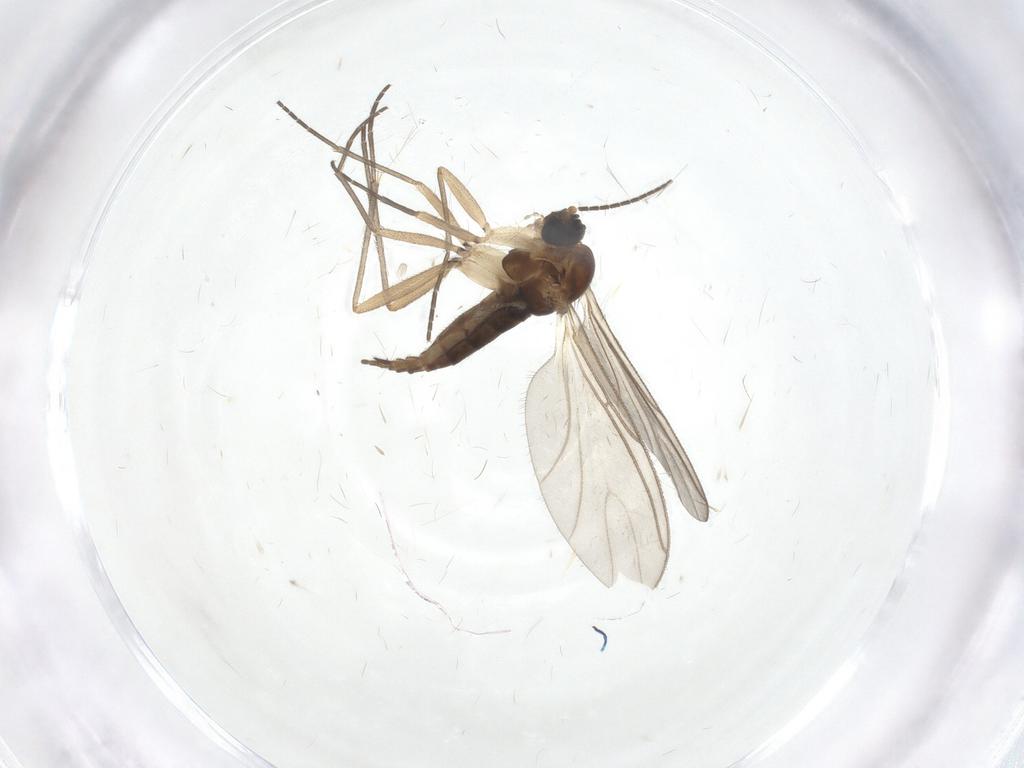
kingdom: Animalia
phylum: Arthropoda
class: Insecta
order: Diptera
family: Sciaridae
